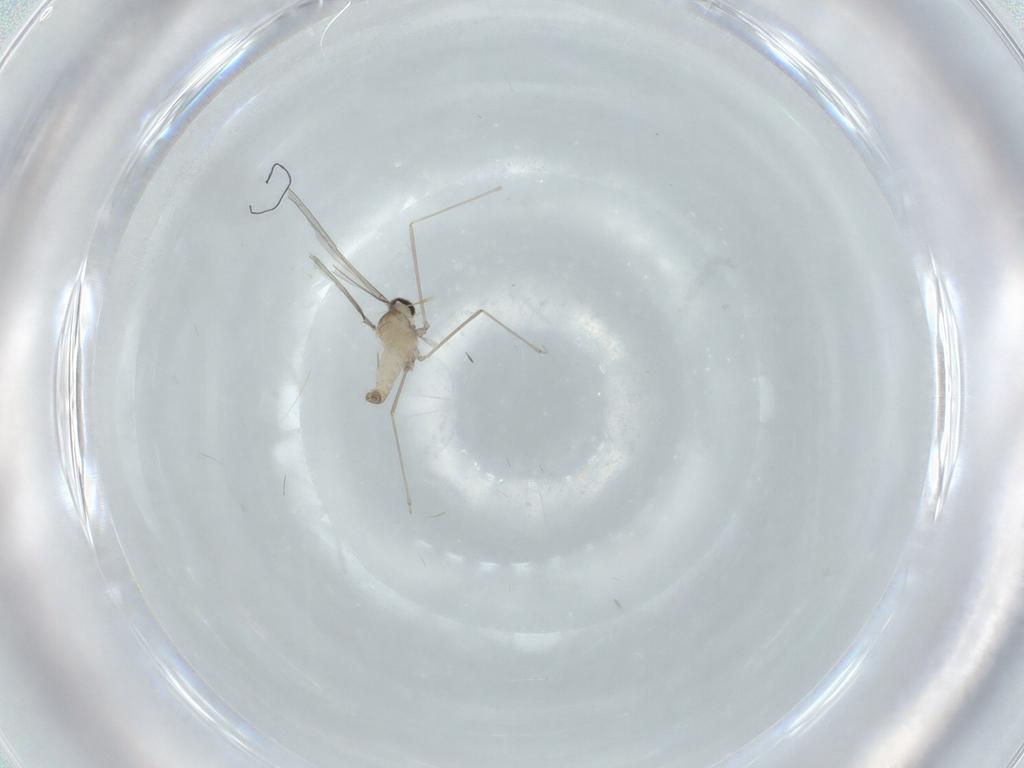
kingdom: Animalia
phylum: Arthropoda
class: Insecta
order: Diptera
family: Cecidomyiidae
